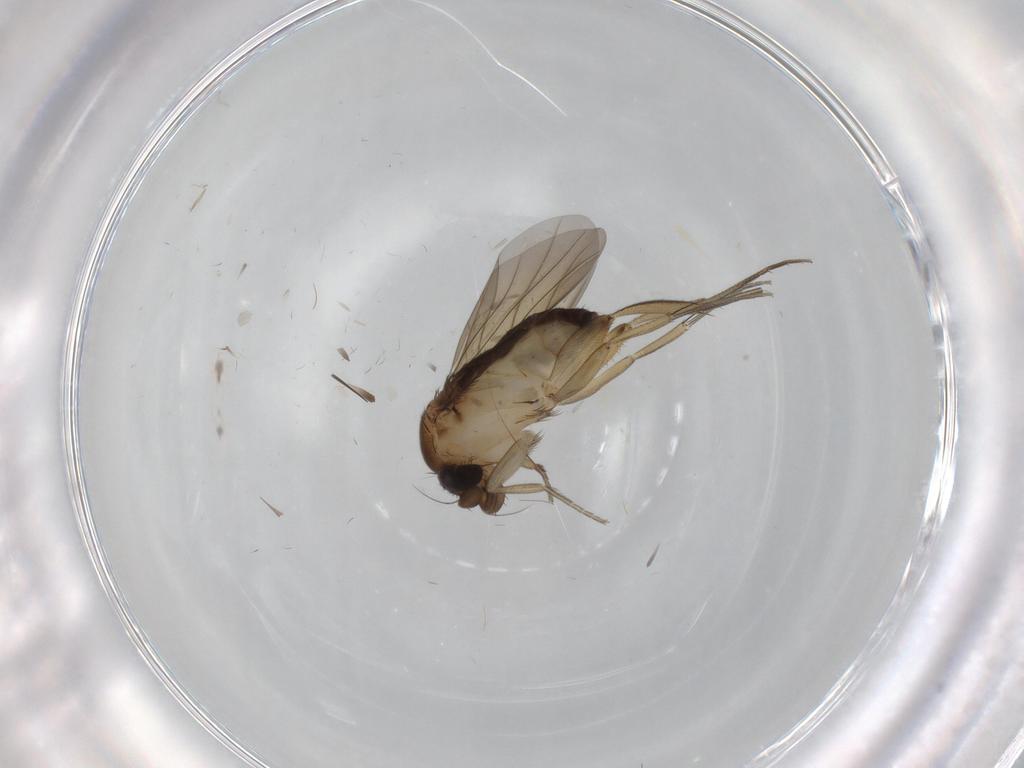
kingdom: Animalia
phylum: Arthropoda
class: Insecta
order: Diptera
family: Phoridae
